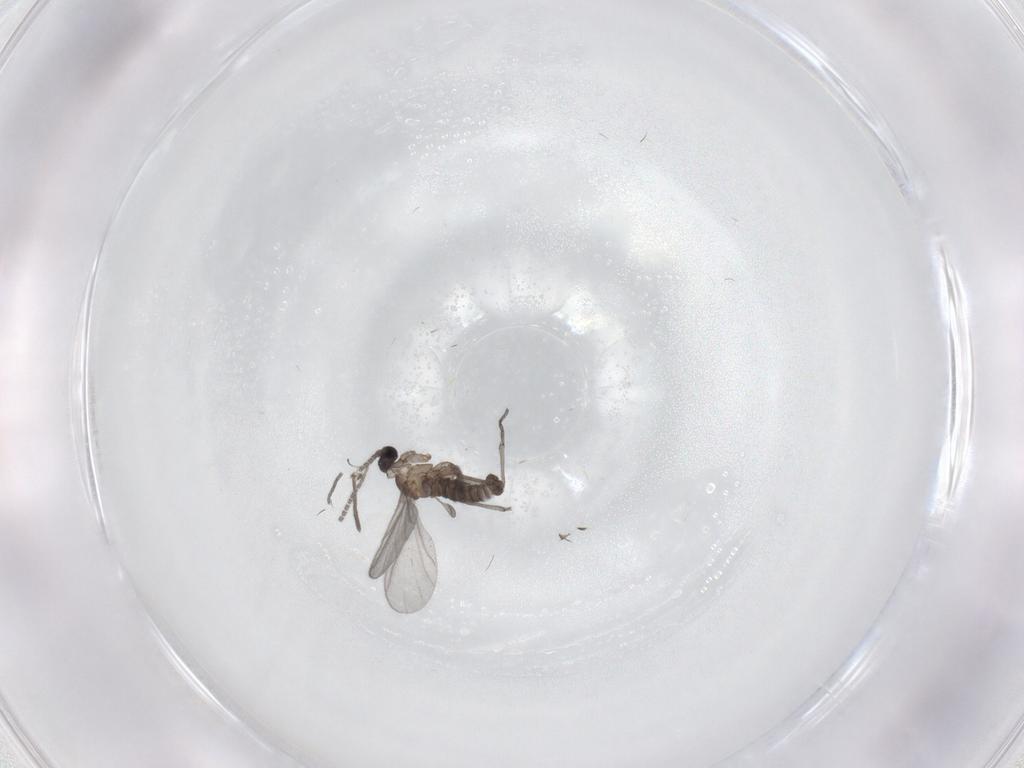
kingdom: Animalia
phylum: Arthropoda
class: Insecta
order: Diptera
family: Sciaridae
